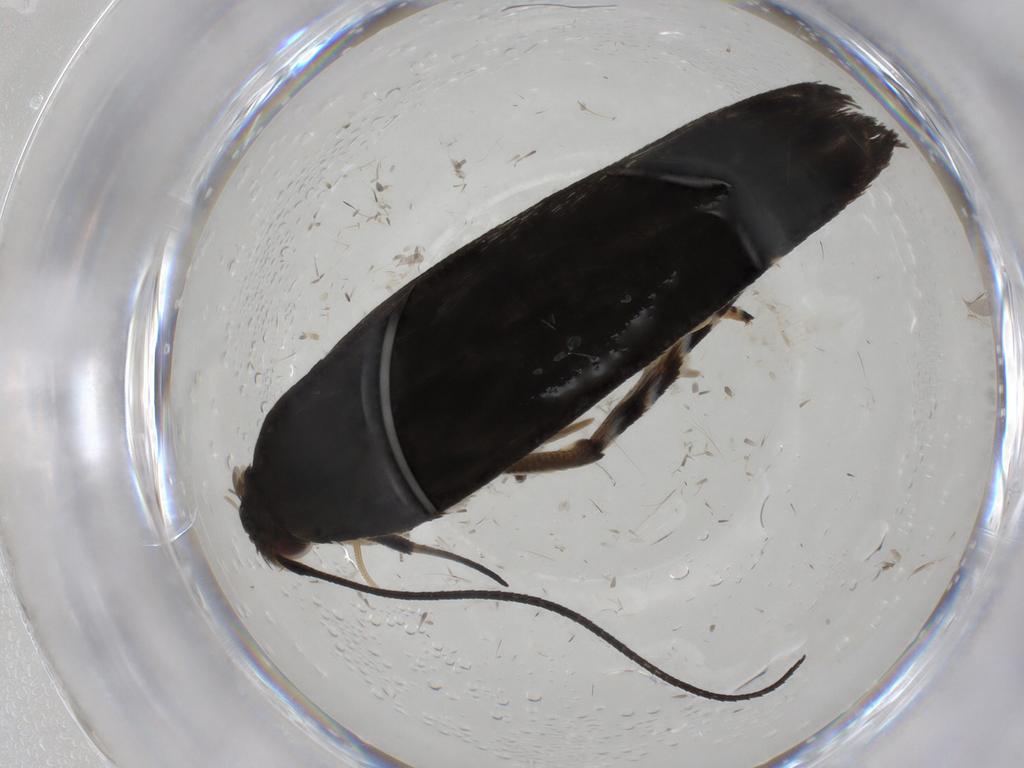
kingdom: Animalia
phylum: Arthropoda
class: Insecta
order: Lepidoptera
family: Crambidae
